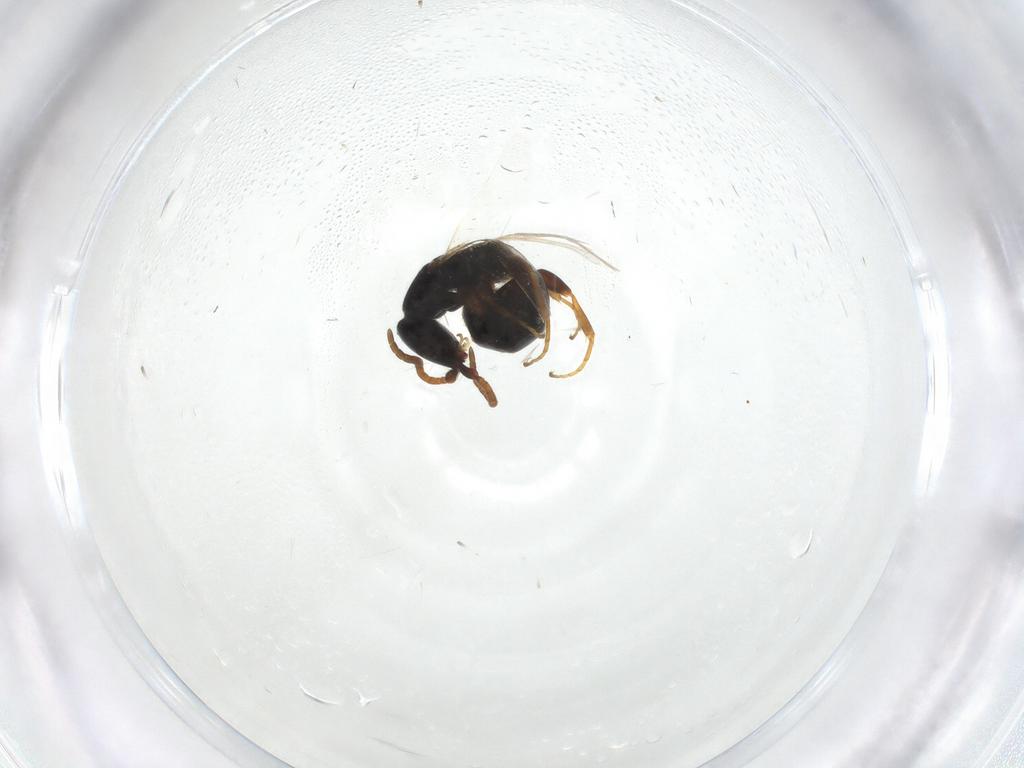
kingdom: Animalia
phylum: Arthropoda
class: Insecta
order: Hymenoptera
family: Bethylidae
